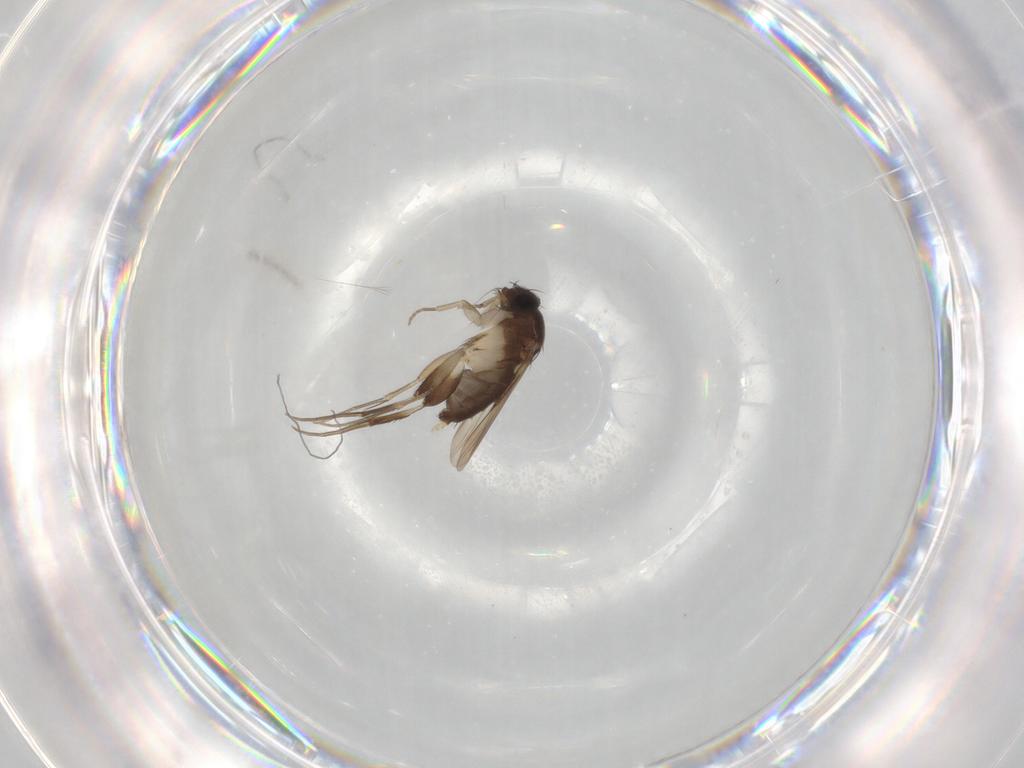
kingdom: Animalia
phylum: Arthropoda
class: Insecta
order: Diptera
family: Phoridae
